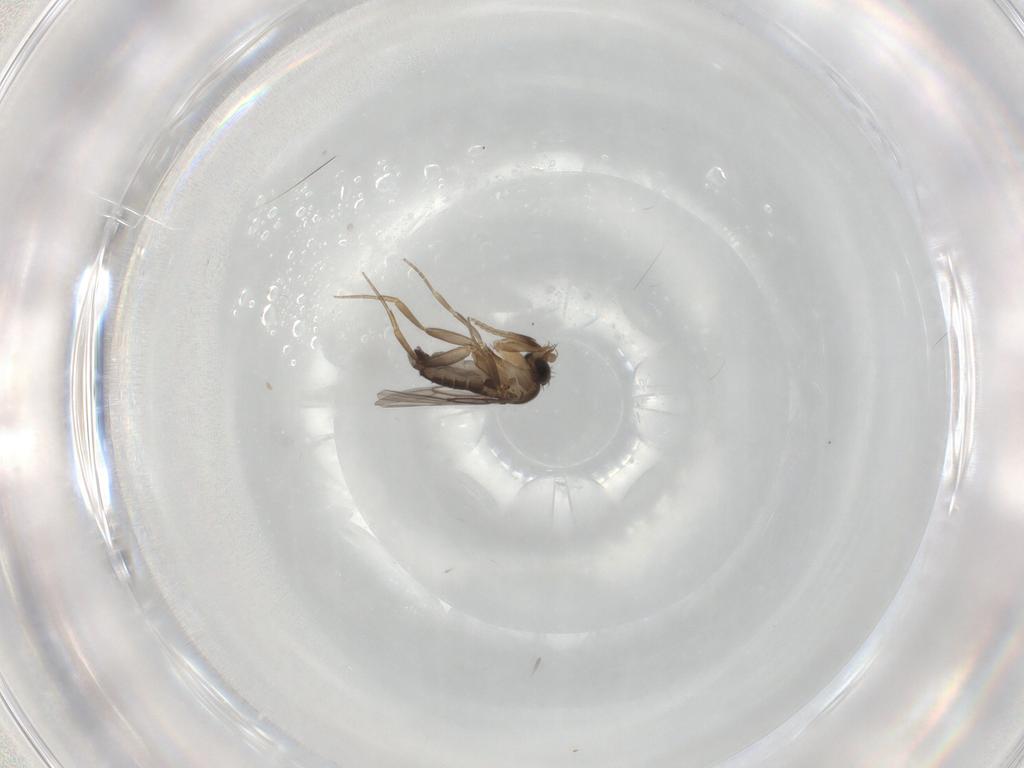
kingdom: Animalia
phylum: Arthropoda
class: Insecta
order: Diptera
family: Phoridae
